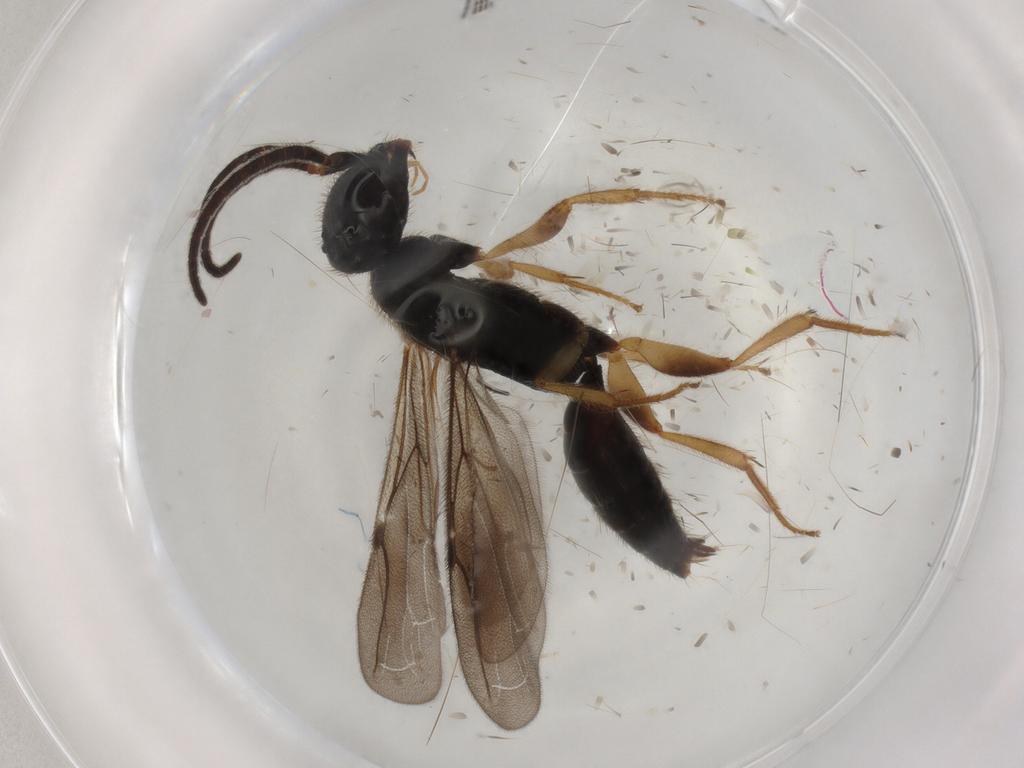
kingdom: Animalia
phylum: Arthropoda
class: Insecta
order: Hymenoptera
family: Bethylidae
